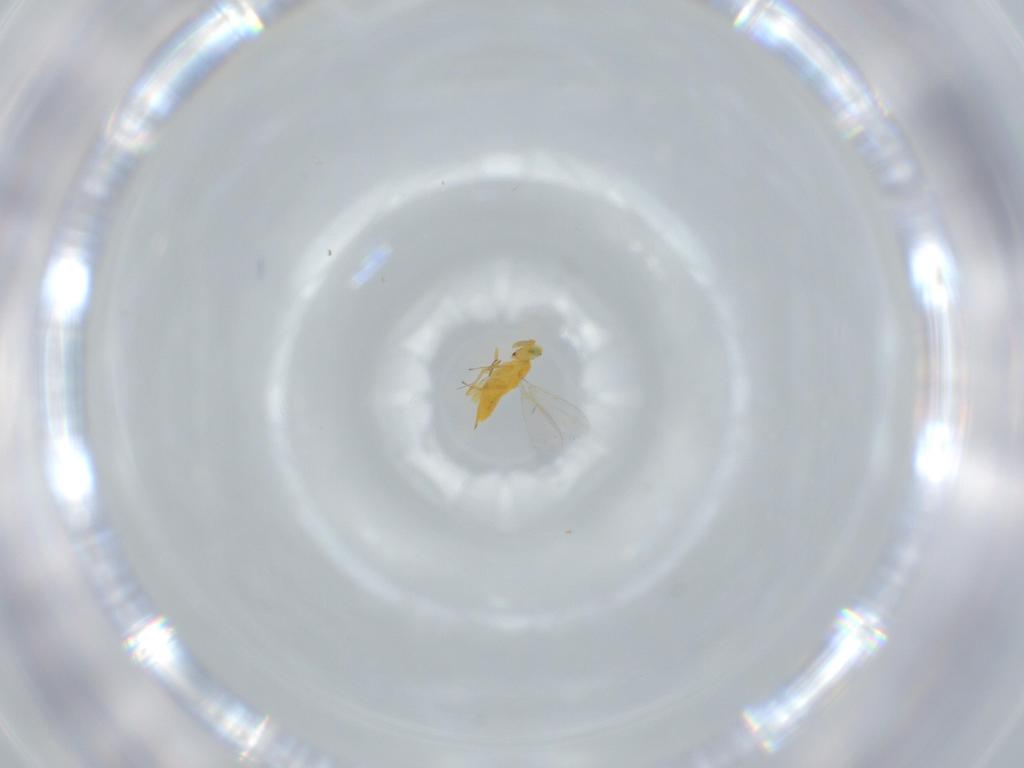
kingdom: Animalia
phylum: Arthropoda
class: Insecta
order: Hymenoptera
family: Aphelinidae
